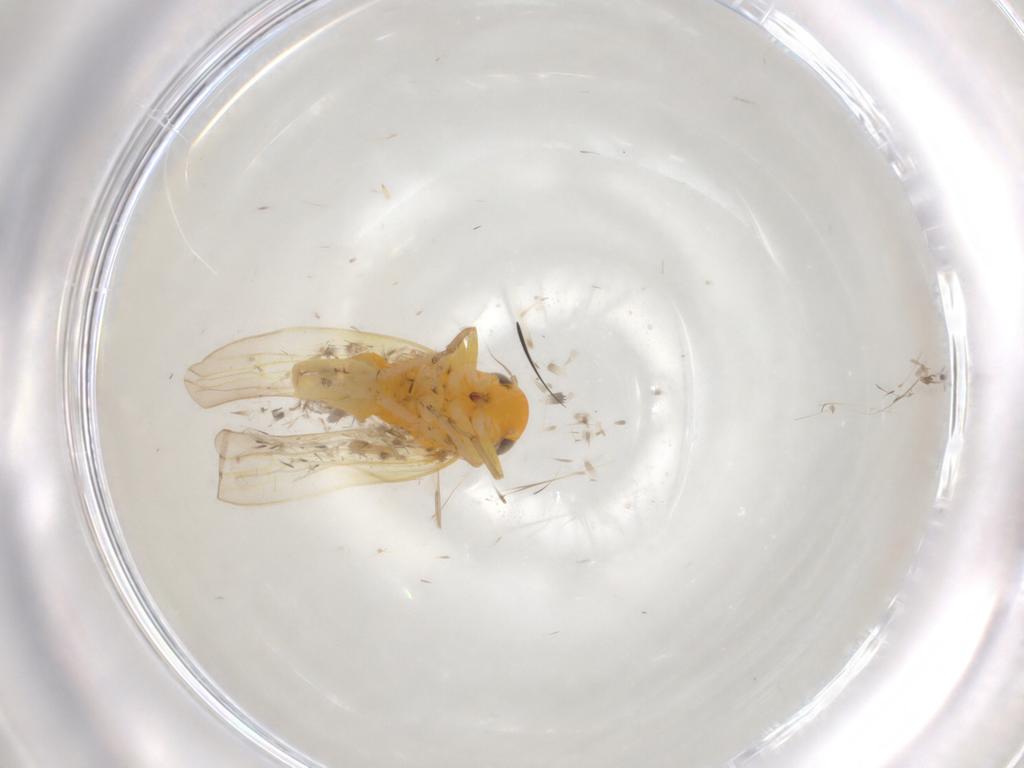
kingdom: Animalia
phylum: Arthropoda
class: Insecta
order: Hemiptera
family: Cicadellidae
